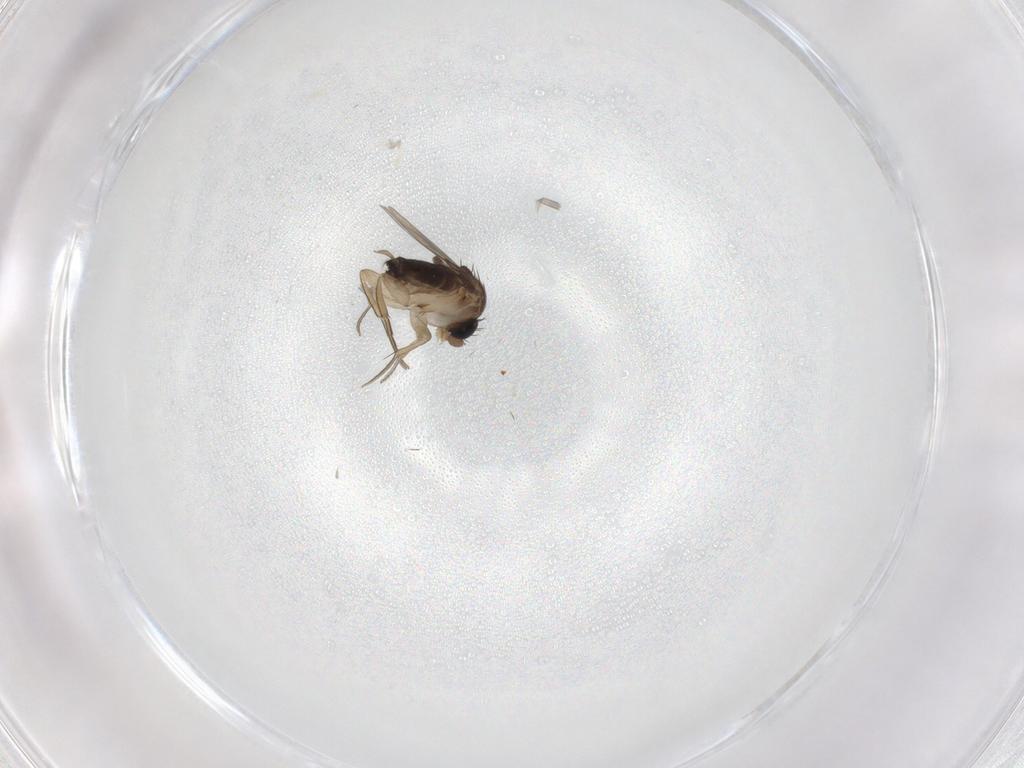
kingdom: Animalia
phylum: Arthropoda
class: Insecta
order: Diptera
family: Cecidomyiidae
